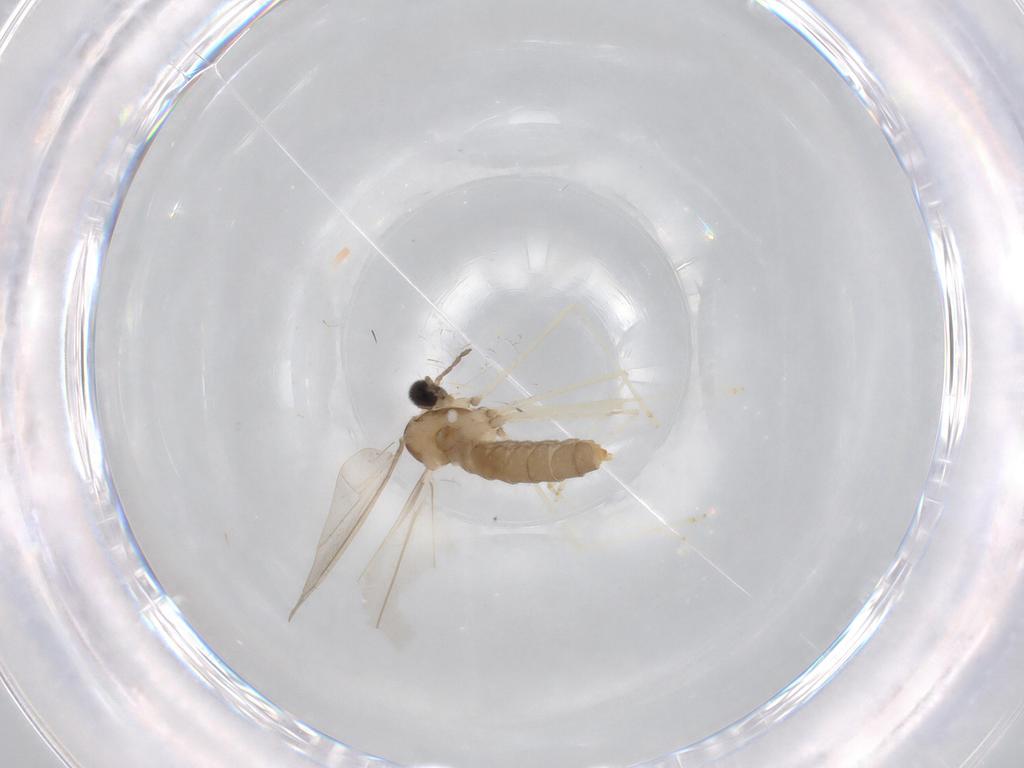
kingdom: Animalia
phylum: Arthropoda
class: Insecta
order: Diptera
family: Cecidomyiidae
